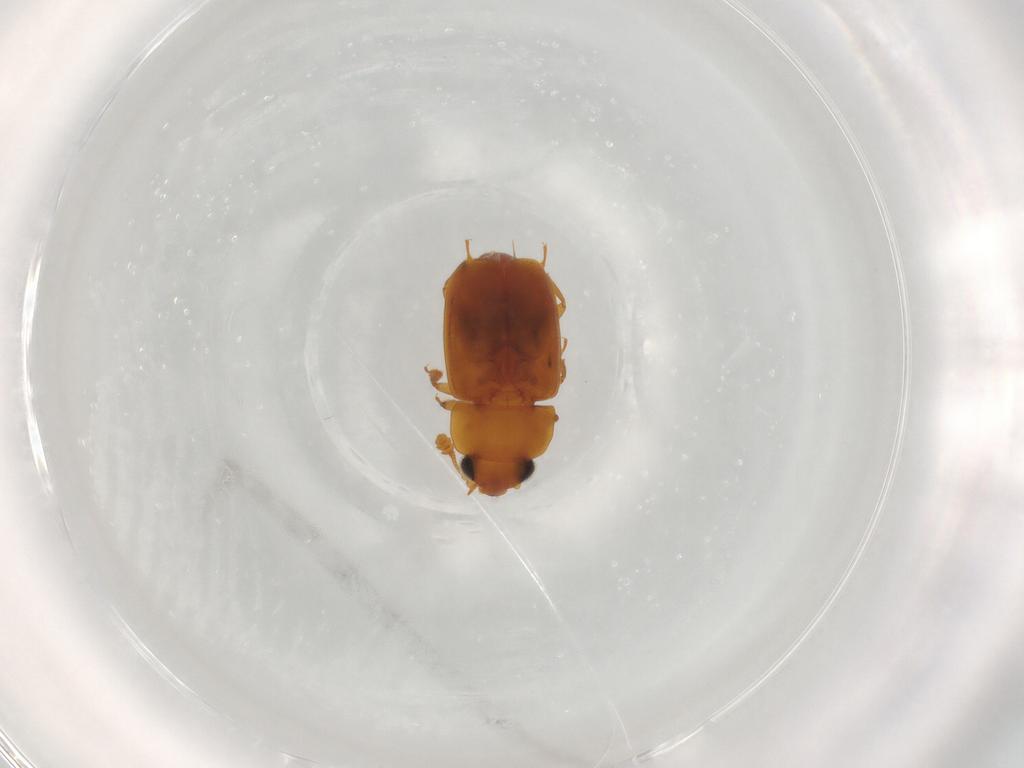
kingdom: Animalia
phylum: Arthropoda
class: Insecta
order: Coleoptera
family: Nitidulidae
